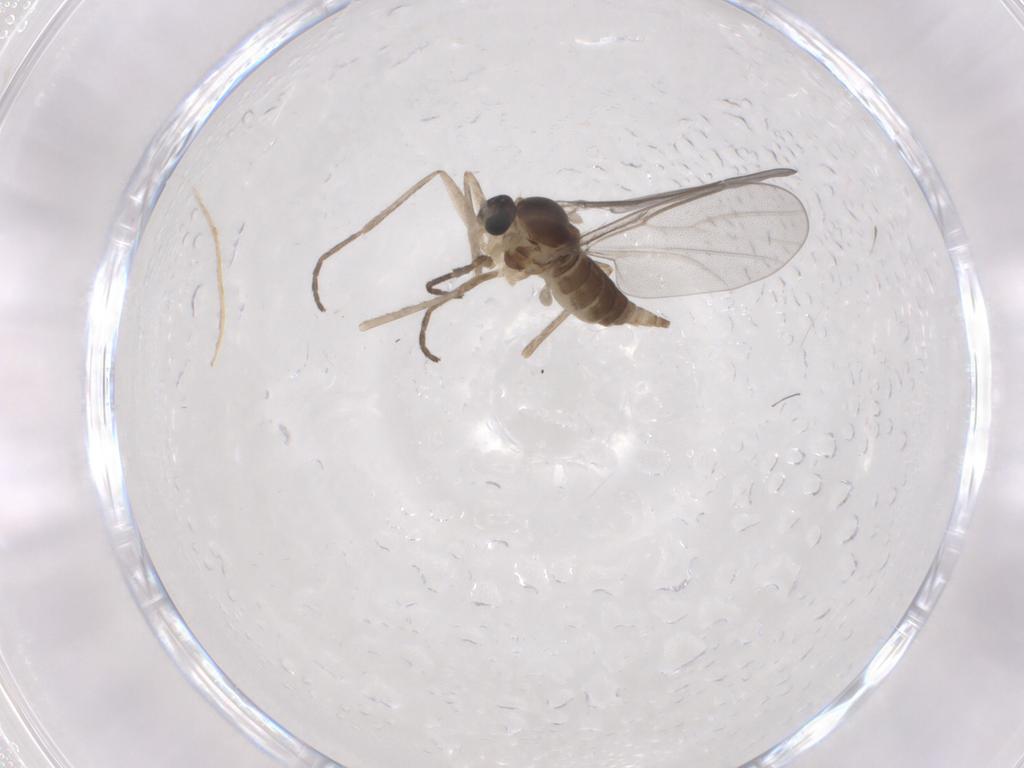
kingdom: Animalia
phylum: Arthropoda
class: Insecta
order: Diptera
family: Cecidomyiidae
